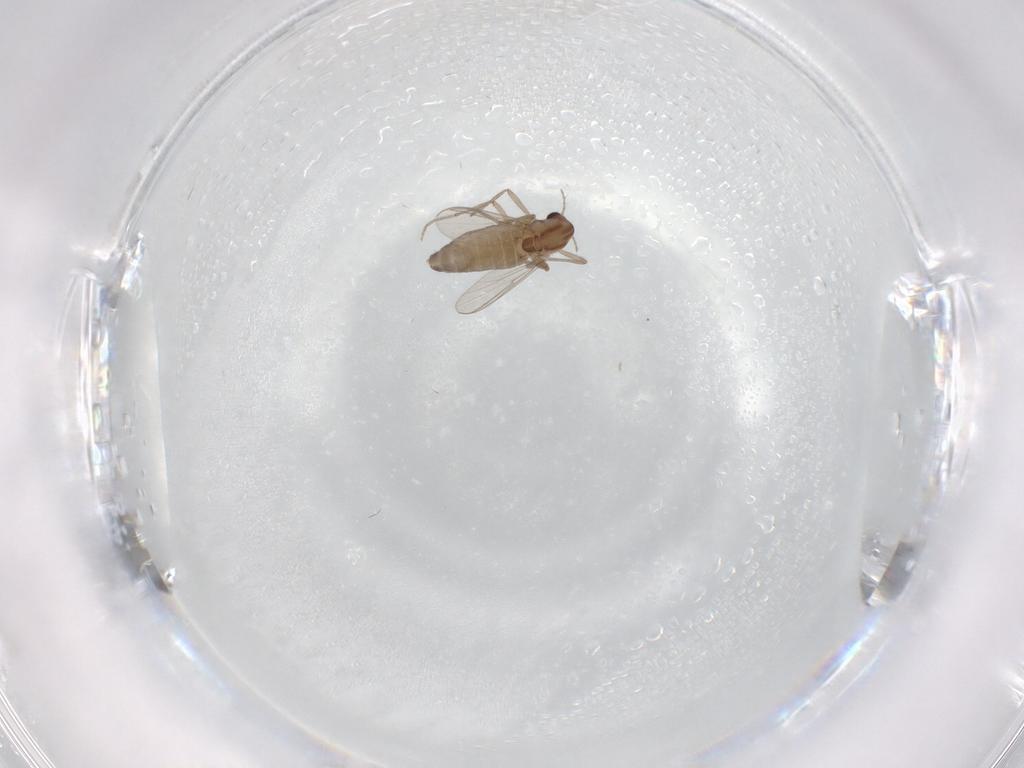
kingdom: Animalia
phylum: Arthropoda
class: Insecta
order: Diptera
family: Chironomidae
